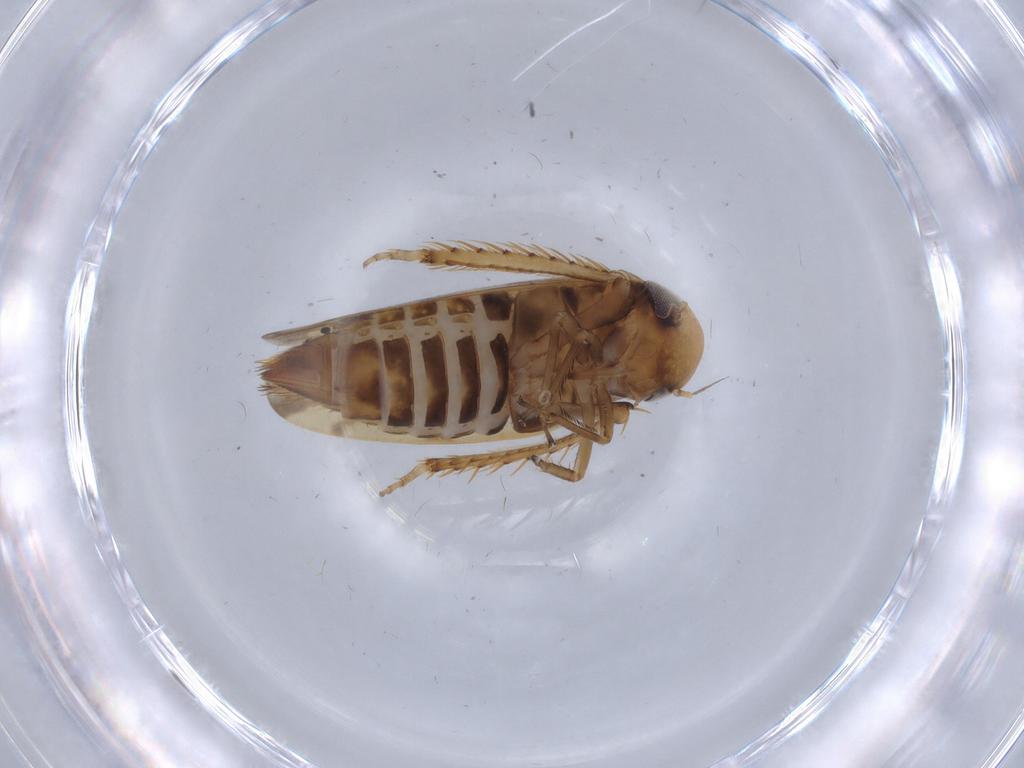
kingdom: Animalia
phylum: Arthropoda
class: Insecta
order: Hemiptera
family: Cicadellidae
